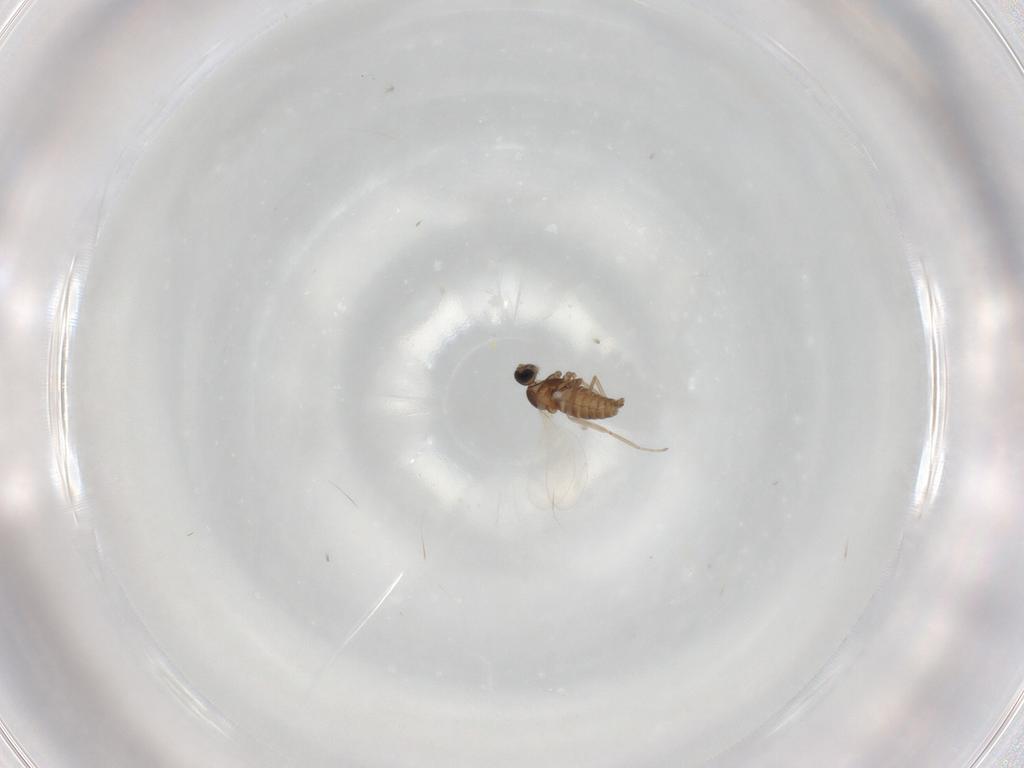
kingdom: Animalia
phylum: Arthropoda
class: Insecta
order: Diptera
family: Cecidomyiidae
